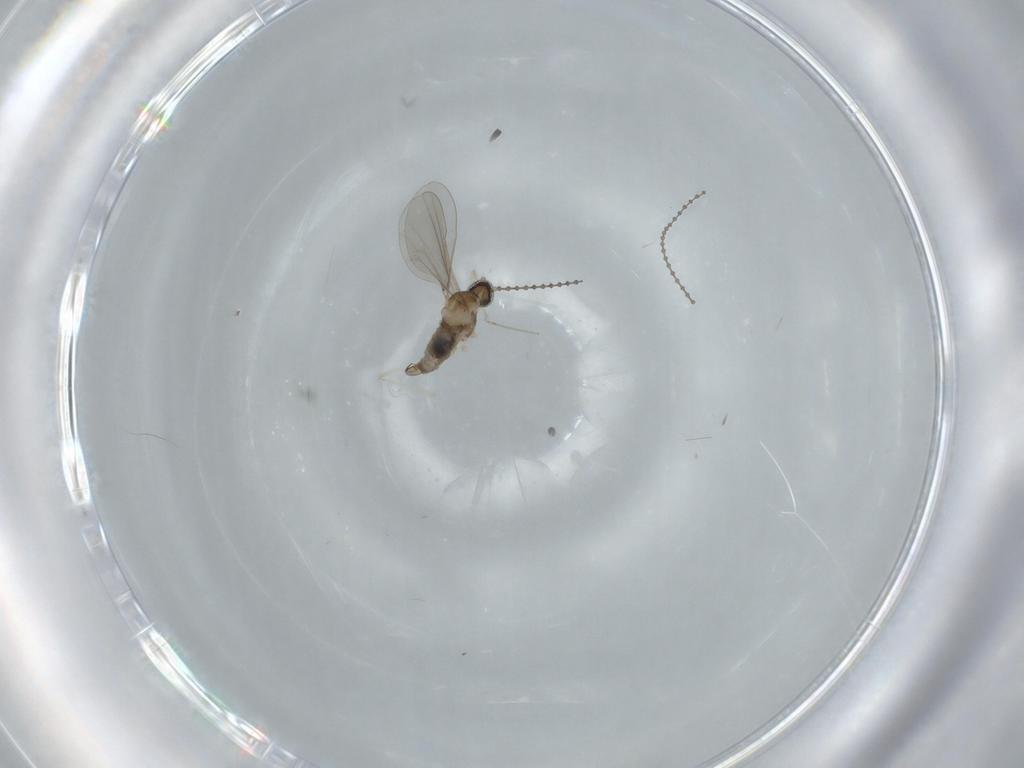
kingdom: Animalia
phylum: Arthropoda
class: Insecta
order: Diptera
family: Cecidomyiidae
